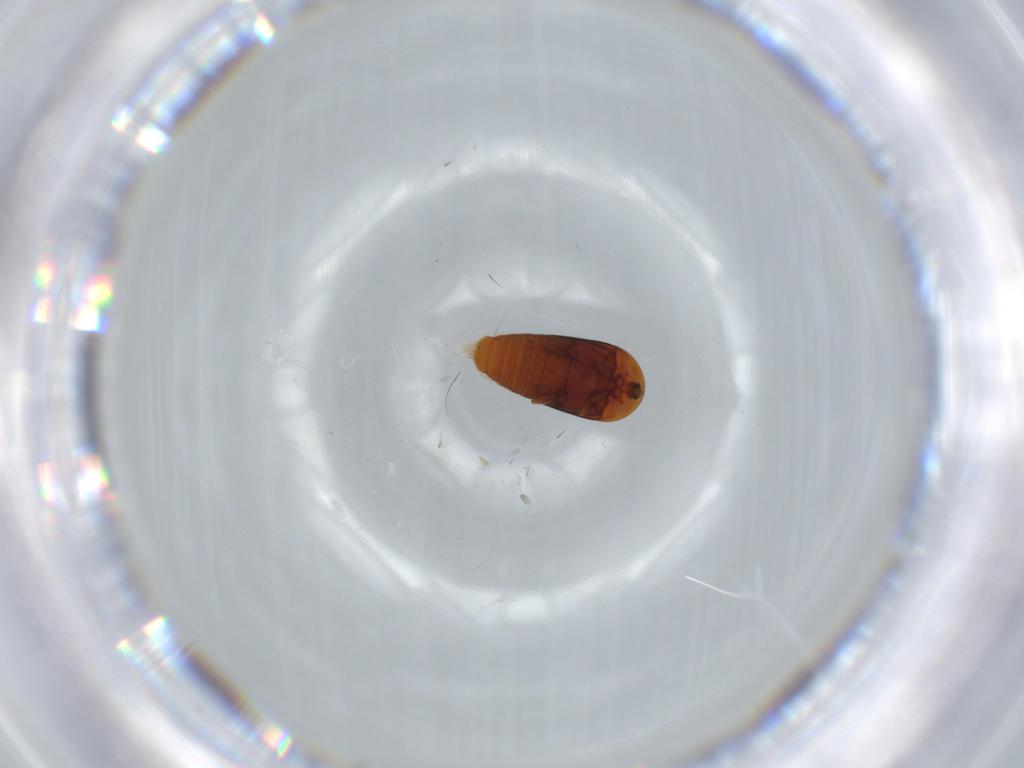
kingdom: Animalia
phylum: Arthropoda
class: Insecta
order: Coleoptera
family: Corylophidae
